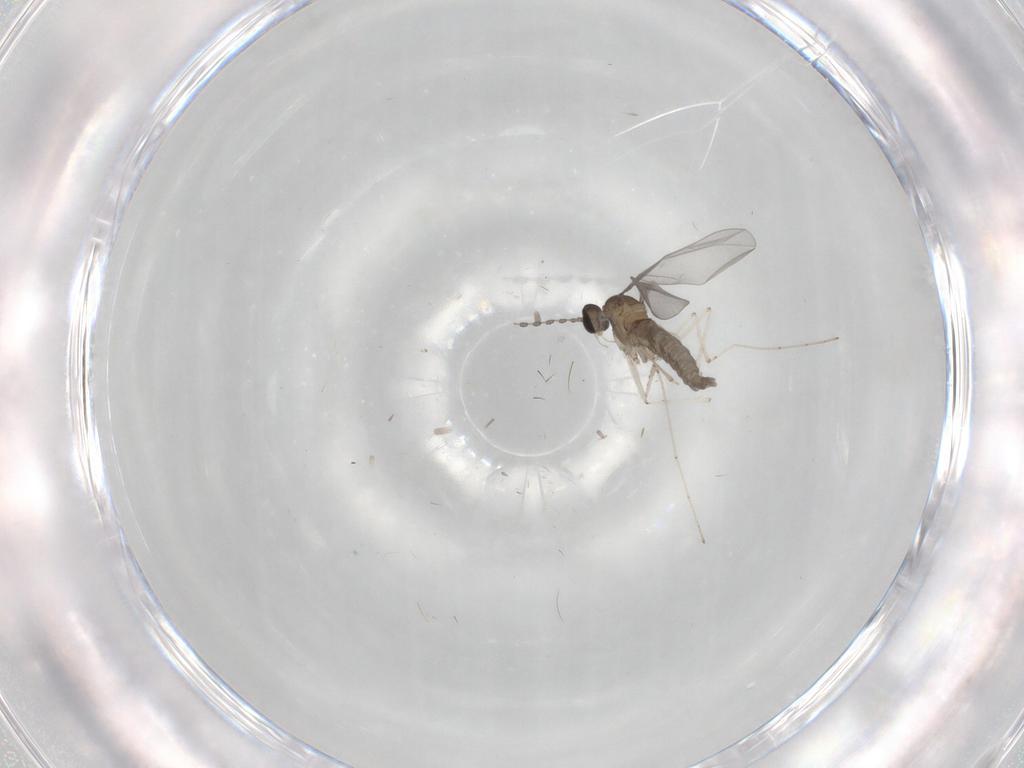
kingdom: Animalia
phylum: Arthropoda
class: Insecta
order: Diptera
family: Cecidomyiidae
